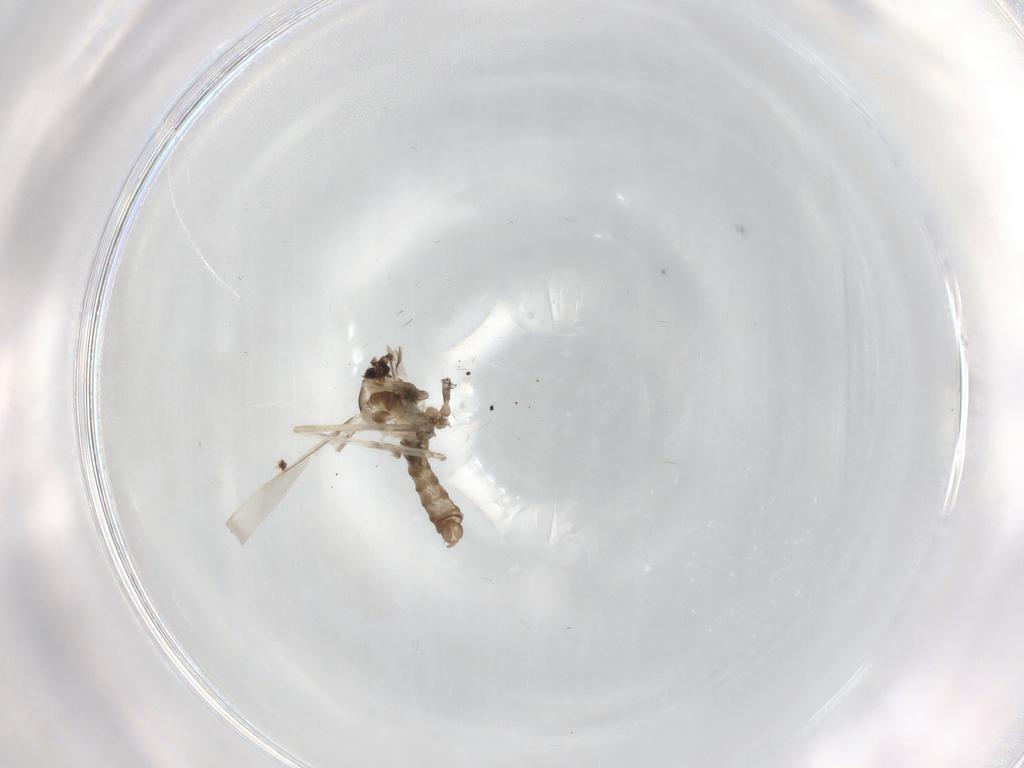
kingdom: Animalia
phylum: Arthropoda
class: Insecta
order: Diptera
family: Cecidomyiidae
